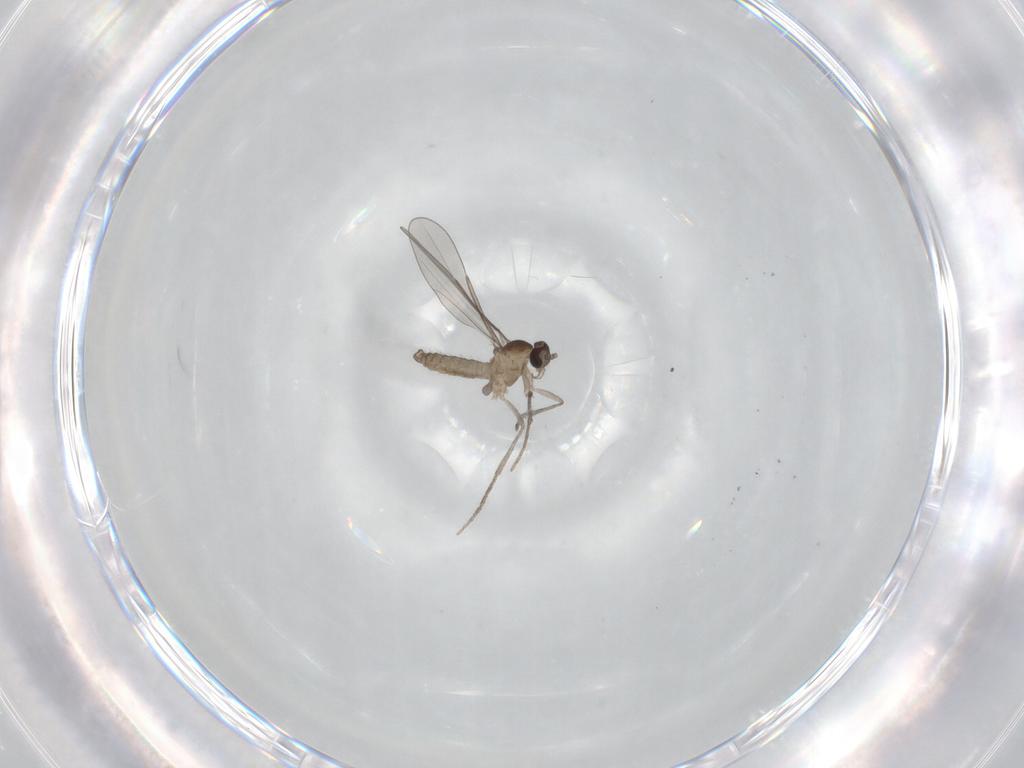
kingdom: Animalia
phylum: Arthropoda
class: Insecta
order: Diptera
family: Cecidomyiidae
